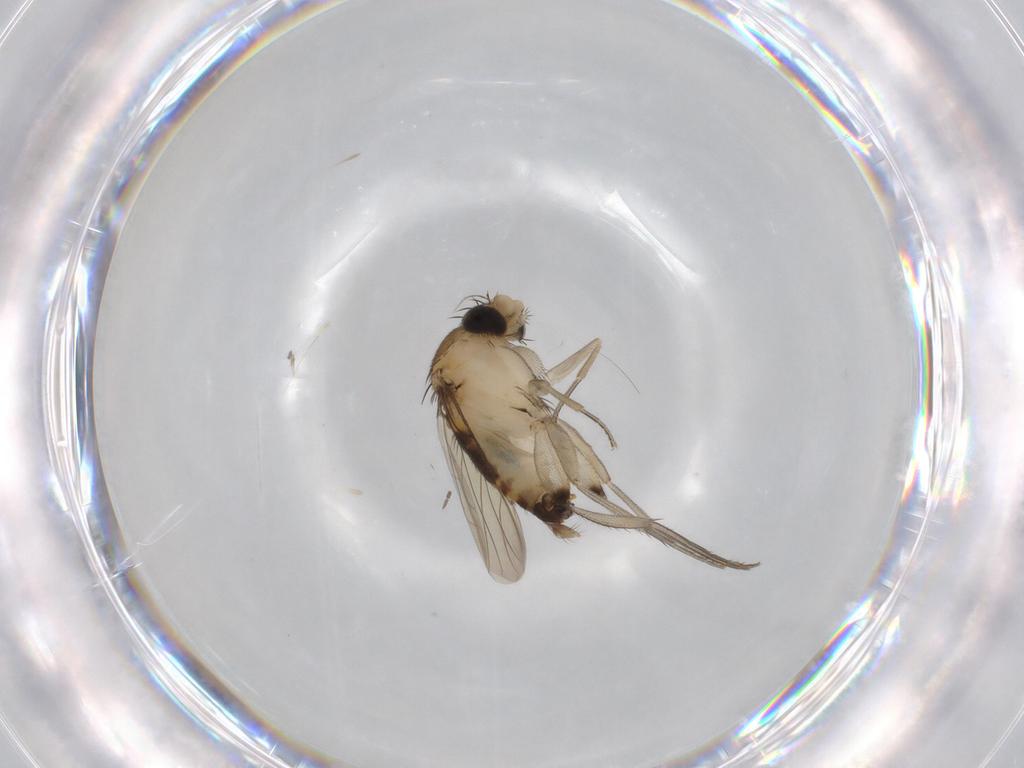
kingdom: Animalia
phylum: Arthropoda
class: Insecta
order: Diptera
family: Phoridae
